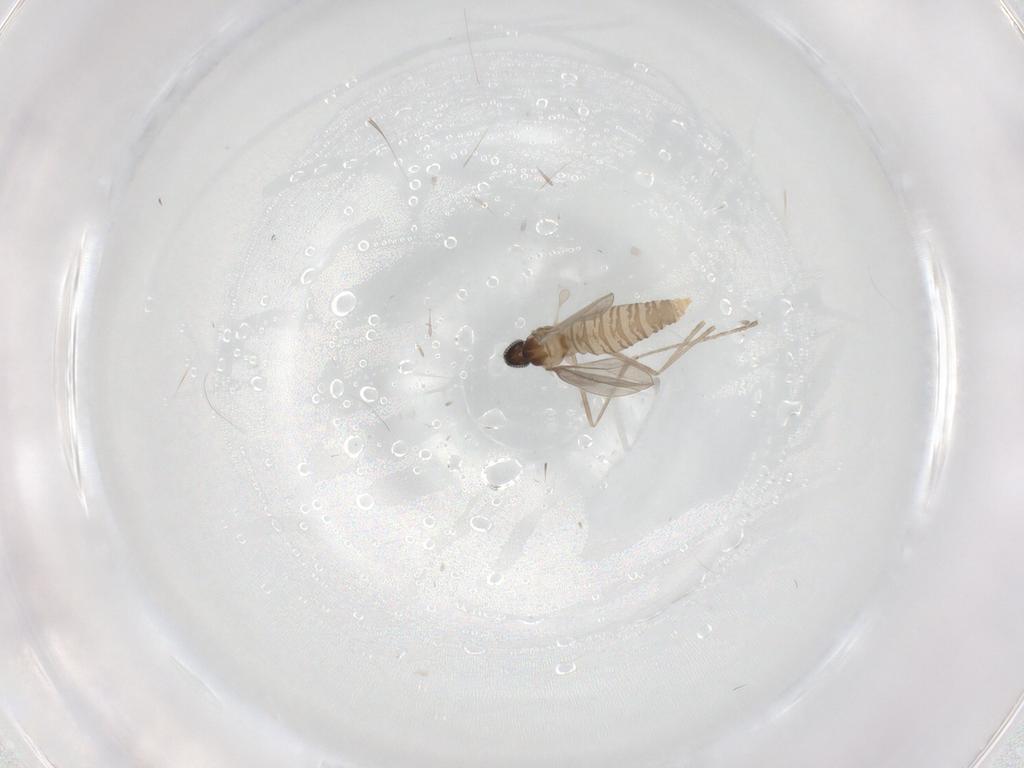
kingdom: Animalia
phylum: Arthropoda
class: Insecta
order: Diptera
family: Cecidomyiidae
